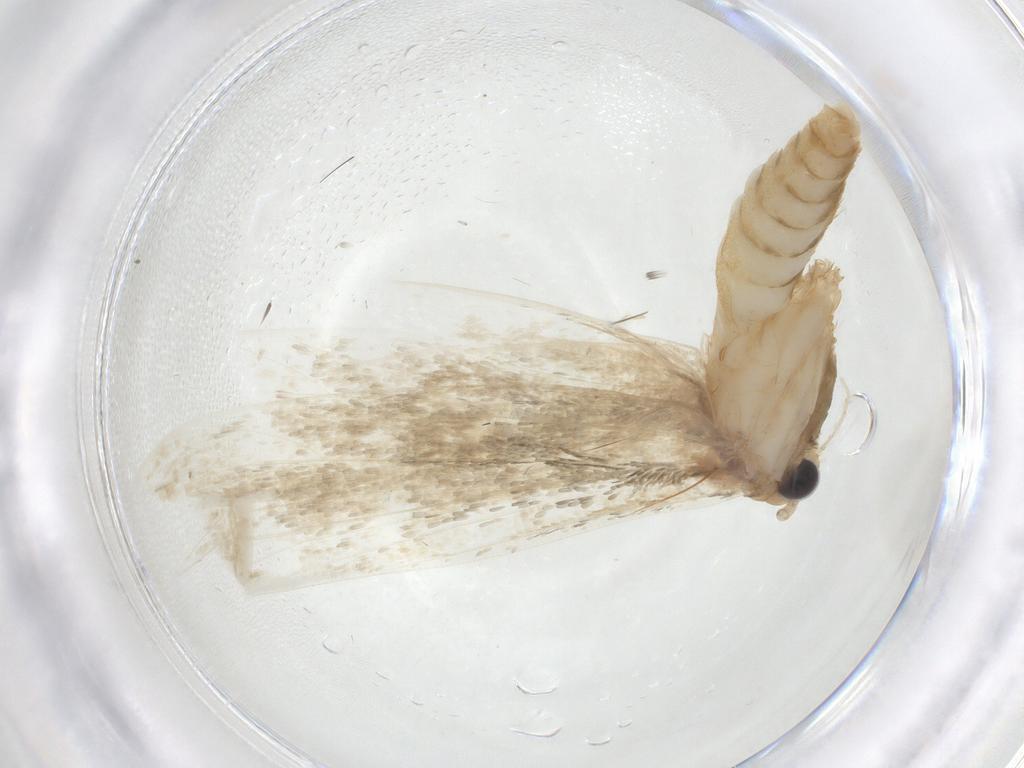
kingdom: Animalia
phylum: Arthropoda
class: Insecta
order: Lepidoptera
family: Oecophoridae
